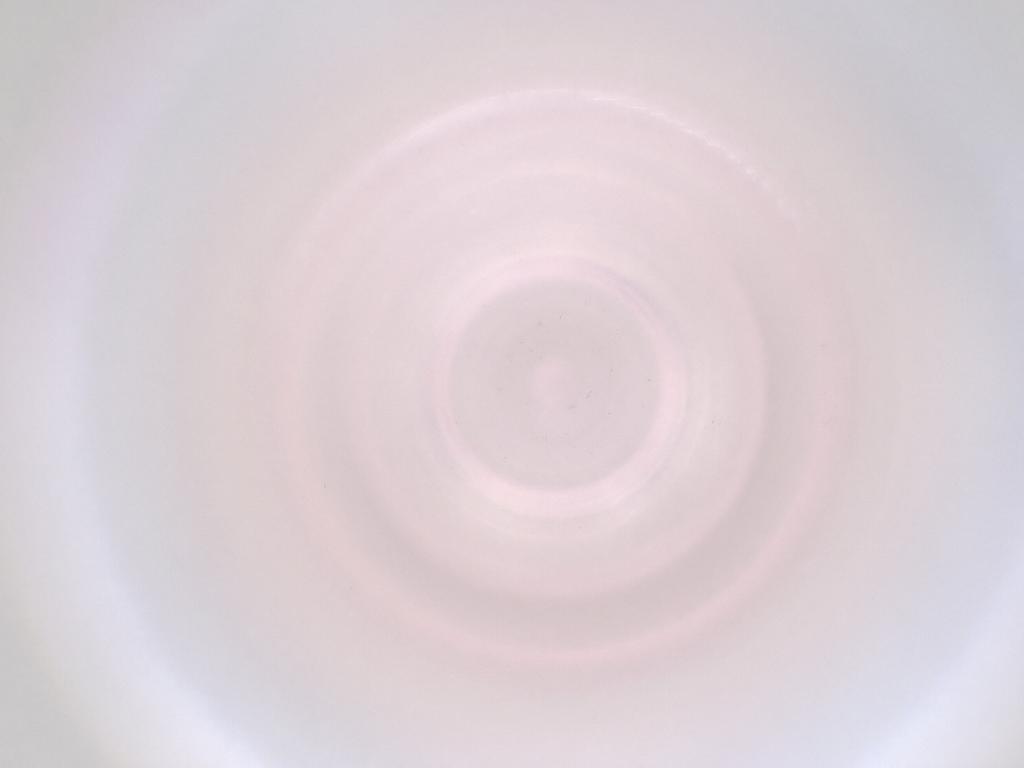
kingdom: Animalia
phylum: Arthropoda
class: Insecta
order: Diptera
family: Cecidomyiidae
